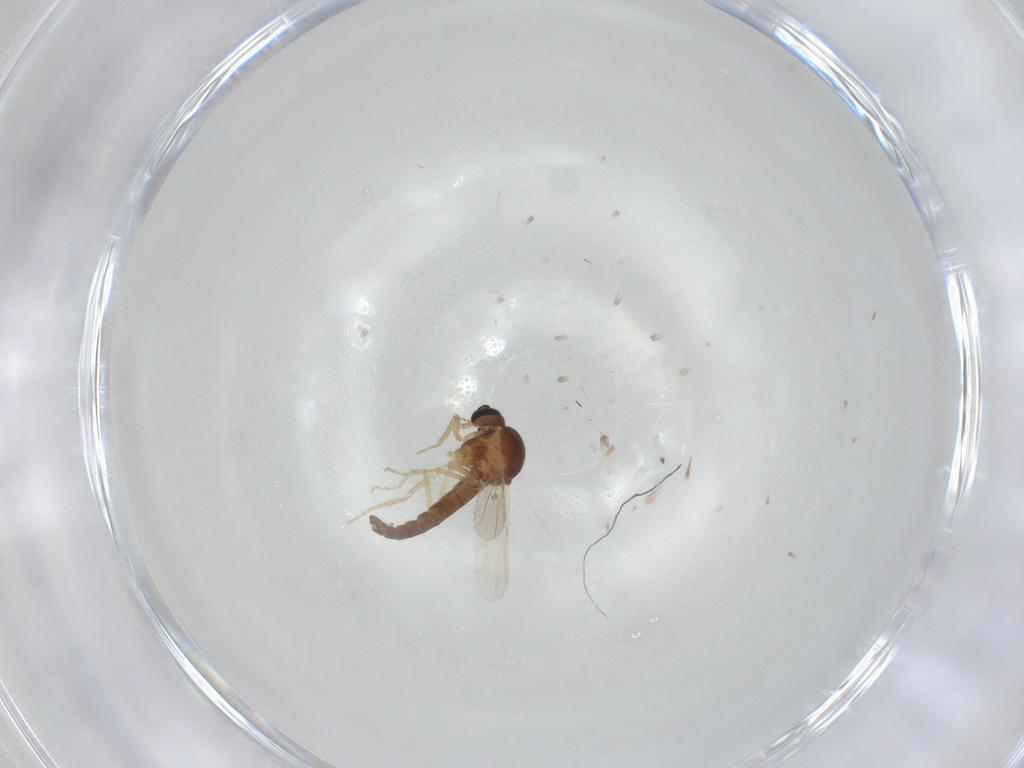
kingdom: Animalia
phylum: Arthropoda
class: Insecta
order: Diptera
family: Ceratopogonidae
